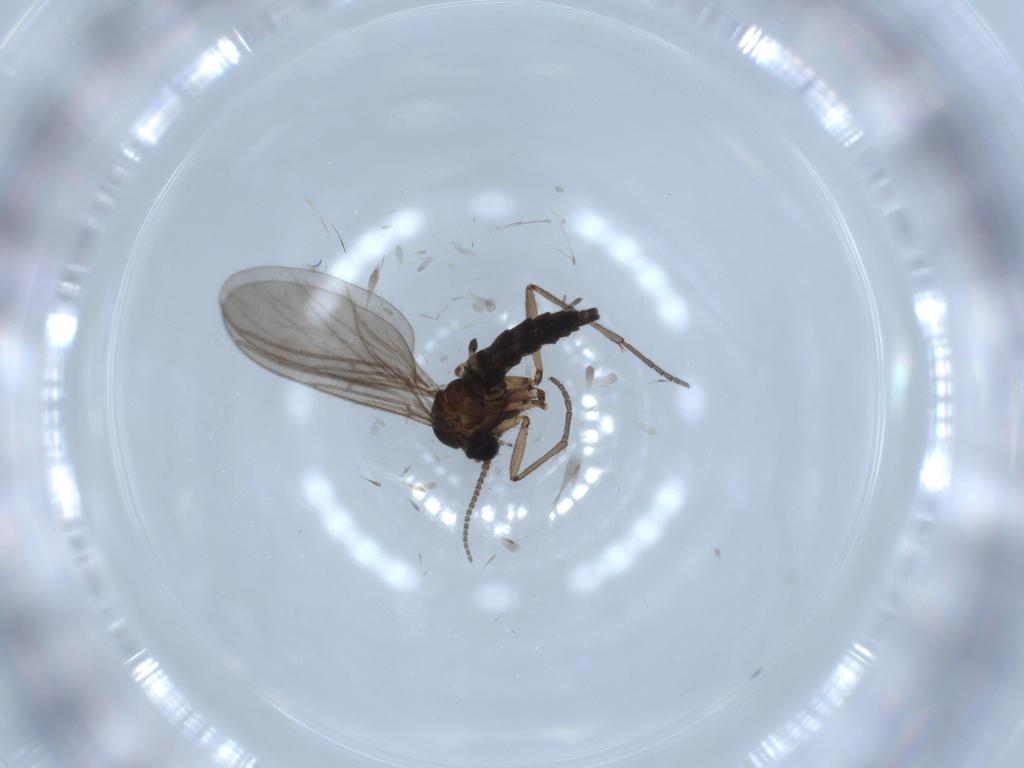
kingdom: Animalia
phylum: Arthropoda
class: Insecta
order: Diptera
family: Sciaridae
